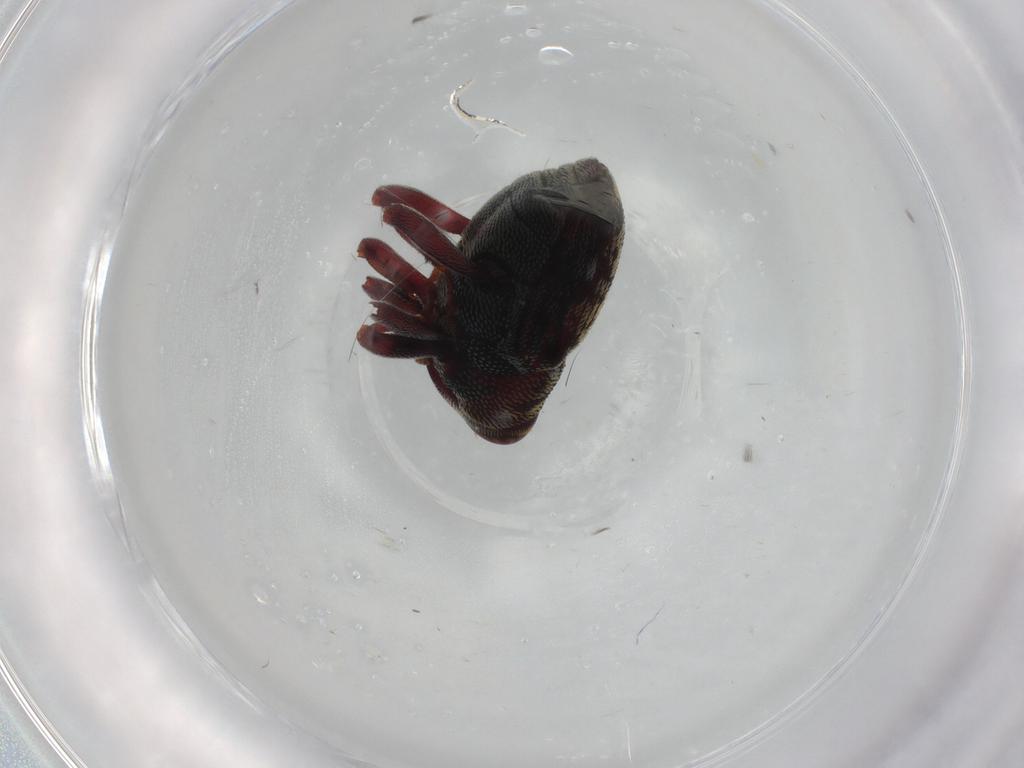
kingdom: Animalia
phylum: Arthropoda
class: Insecta
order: Coleoptera
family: Curculionidae
